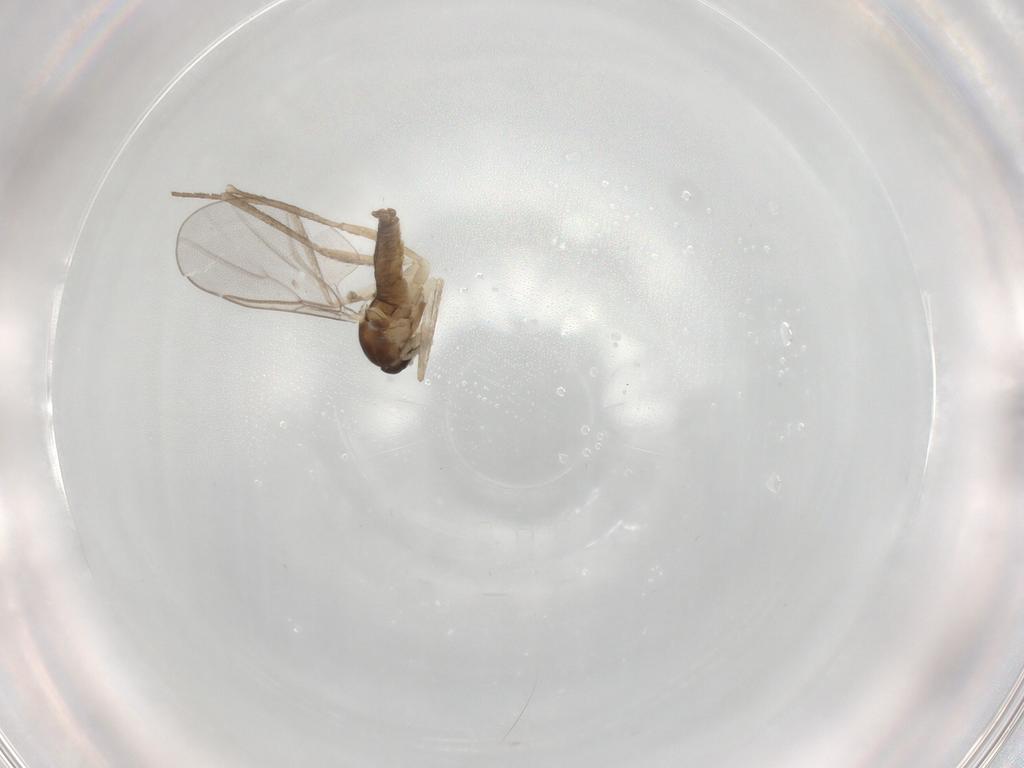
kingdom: Animalia
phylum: Arthropoda
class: Insecta
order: Diptera
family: Cecidomyiidae
